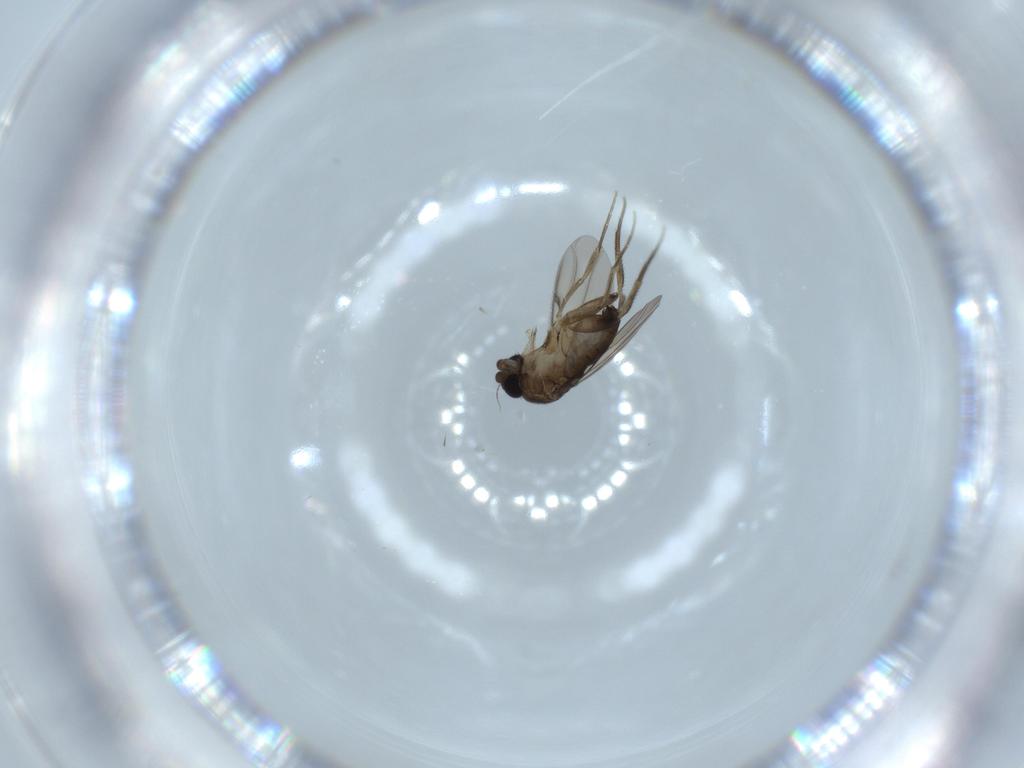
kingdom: Animalia
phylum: Arthropoda
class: Insecta
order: Diptera
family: Phoridae
